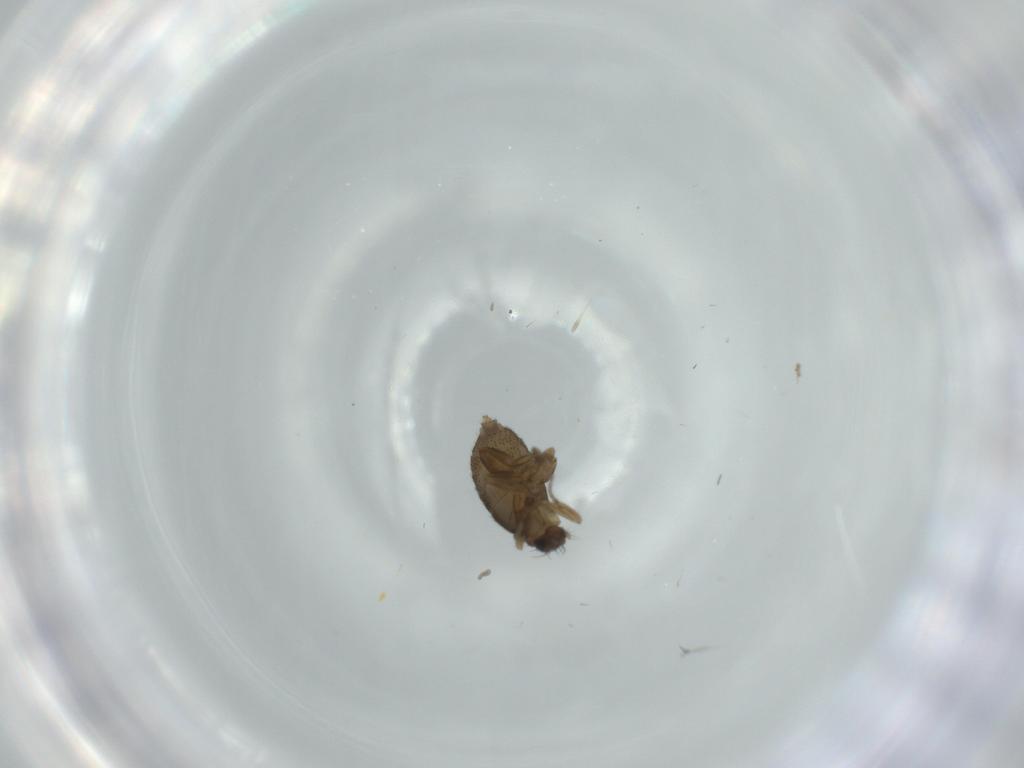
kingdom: Animalia
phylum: Arthropoda
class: Insecta
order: Diptera
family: Phoridae
